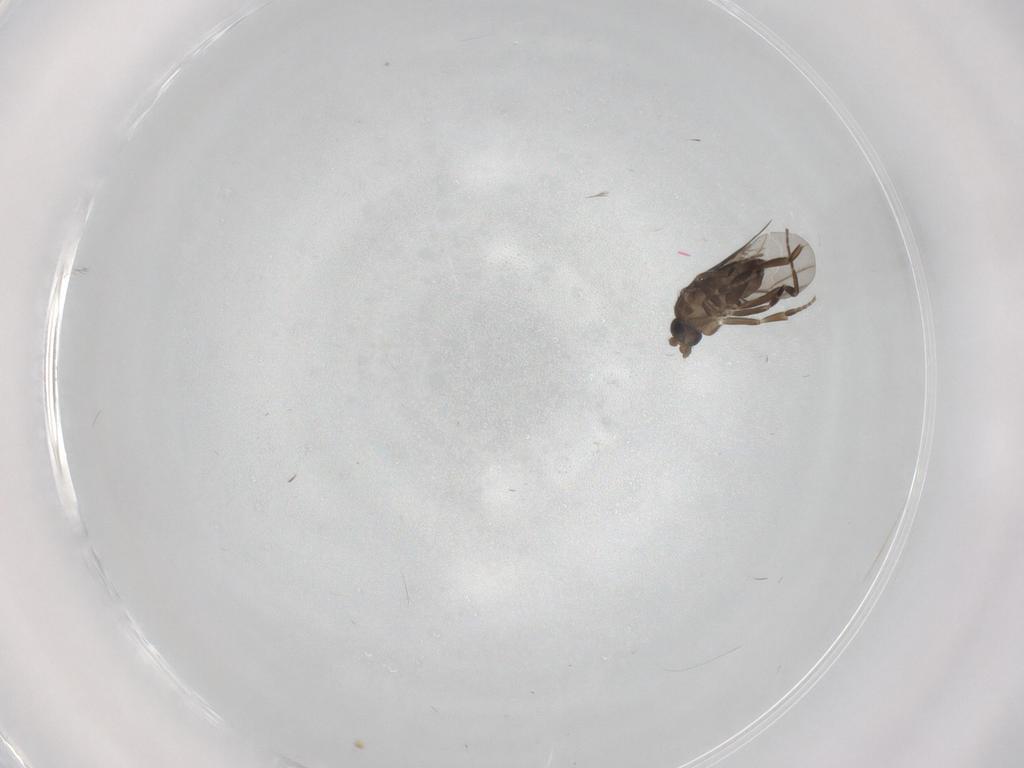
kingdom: Animalia
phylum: Arthropoda
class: Insecta
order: Diptera
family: Phoridae
